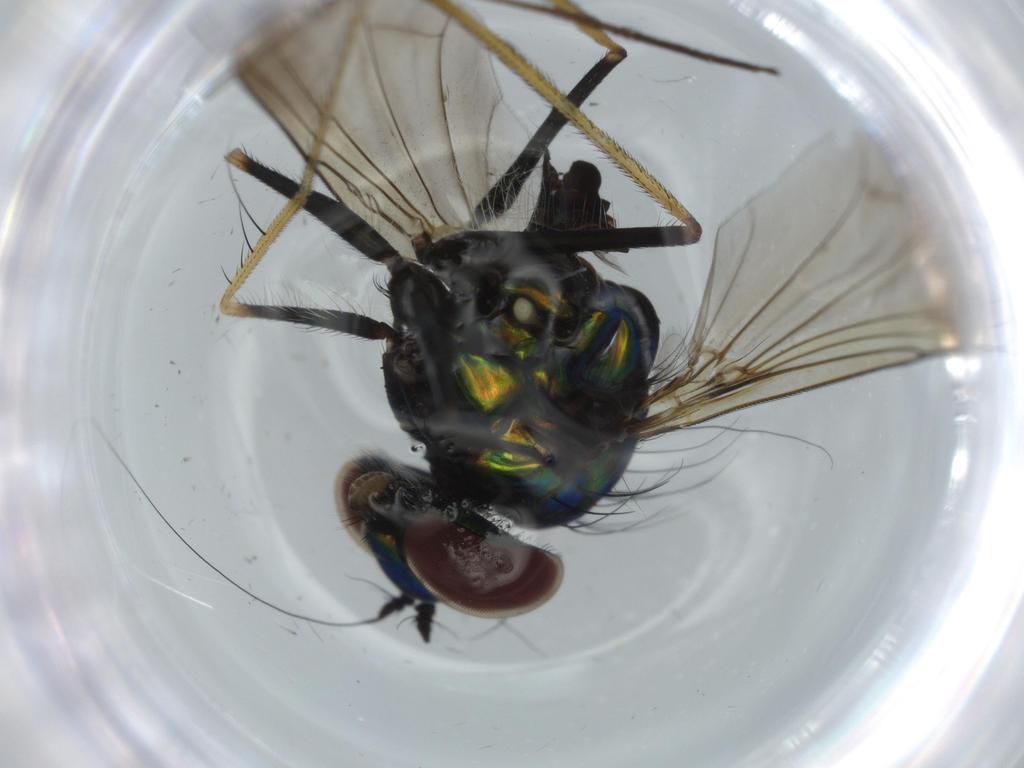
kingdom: Animalia
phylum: Arthropoda
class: Insecta
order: Diptera
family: Dolichopodidae
